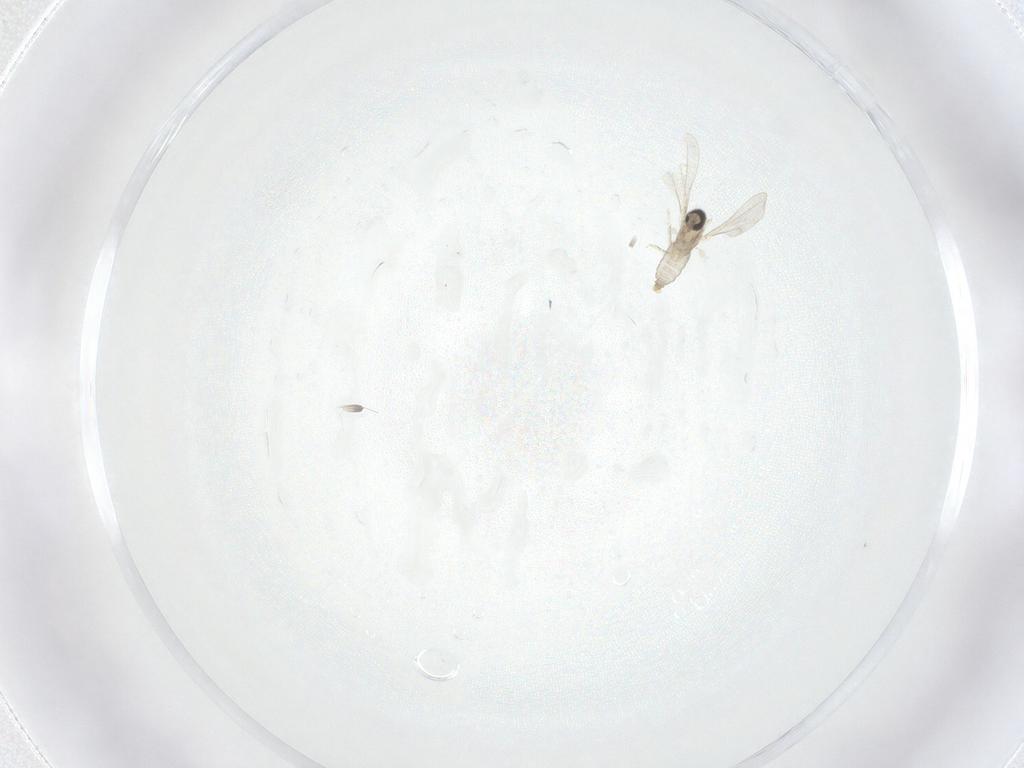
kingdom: Animalia
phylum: Arthropoda
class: Insecta
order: Diptera
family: Cecidomyiidae
